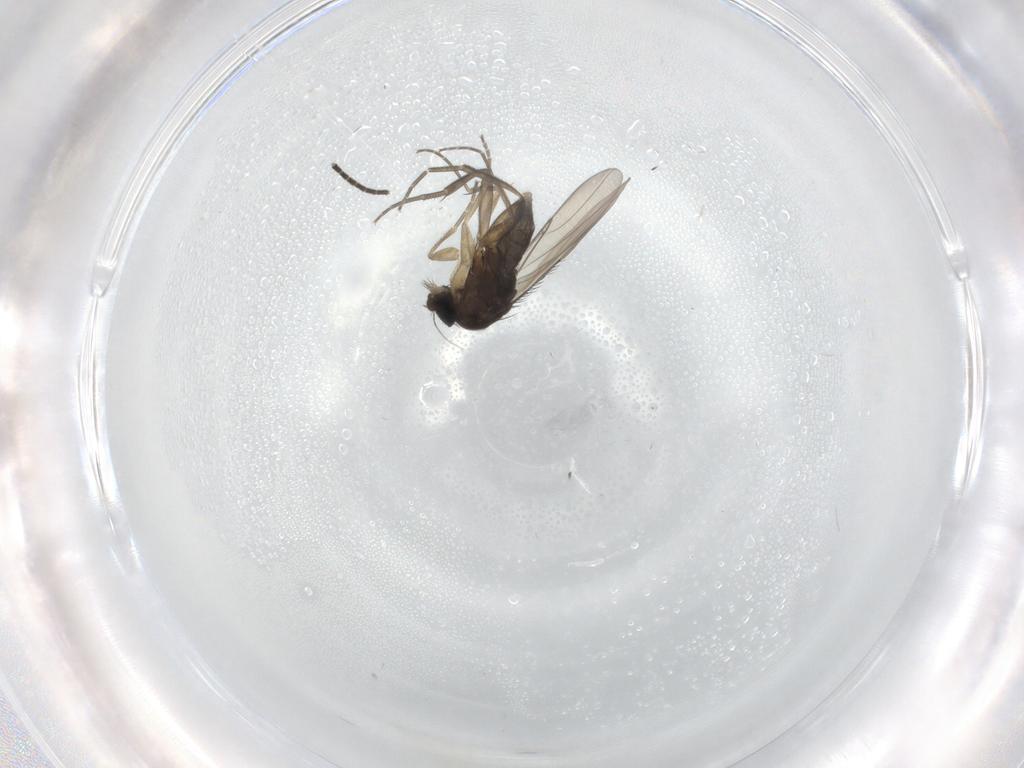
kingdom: Animalia
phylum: Arthropoda
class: Insecta
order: Diptera
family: Phoridae
